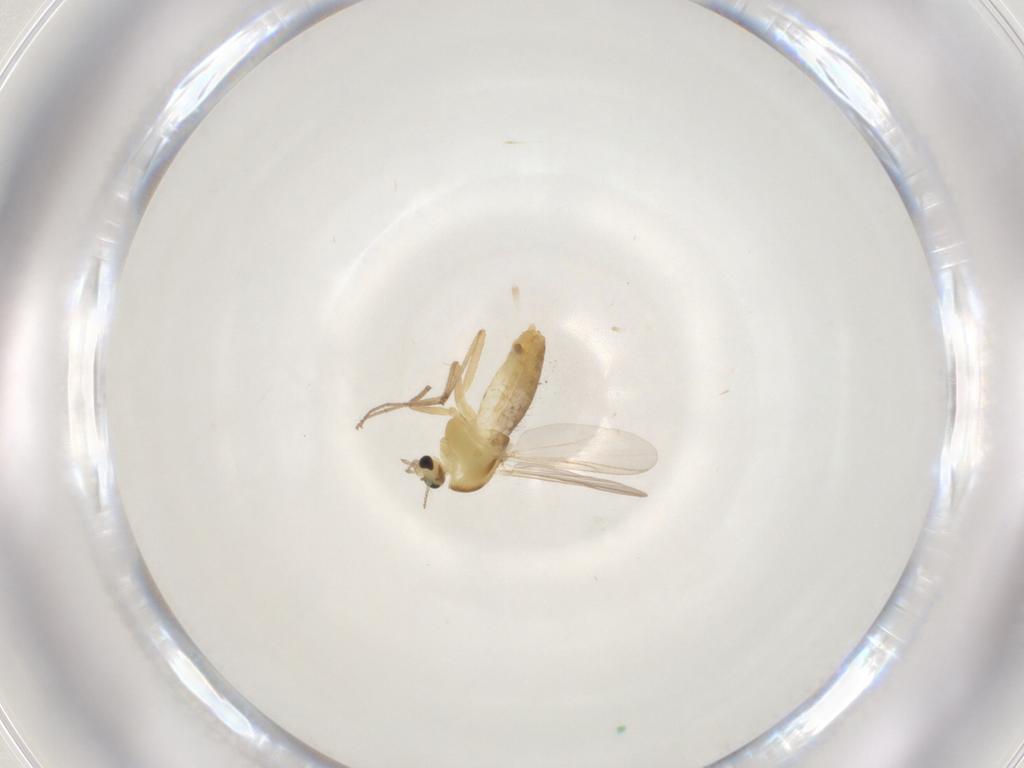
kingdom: Animalia
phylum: Arthropoda
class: Insecta
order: Diptera
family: Chironomidae
